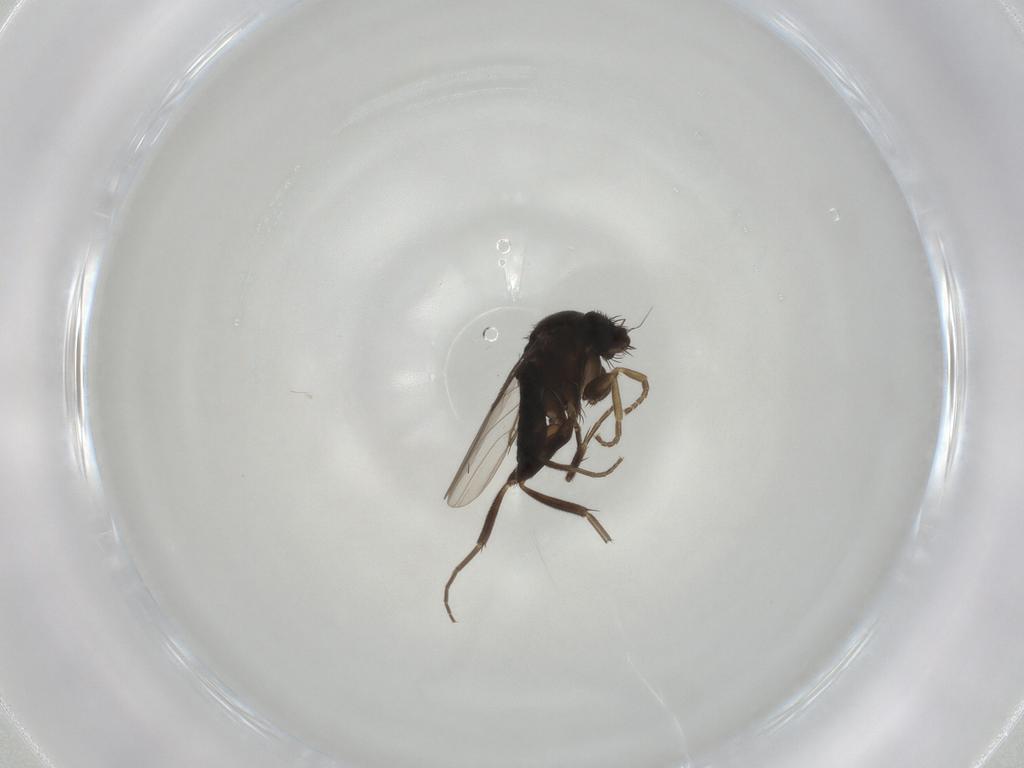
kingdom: Animalia
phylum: Arthropoda
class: Insecta
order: Diptera
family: Phoridae
